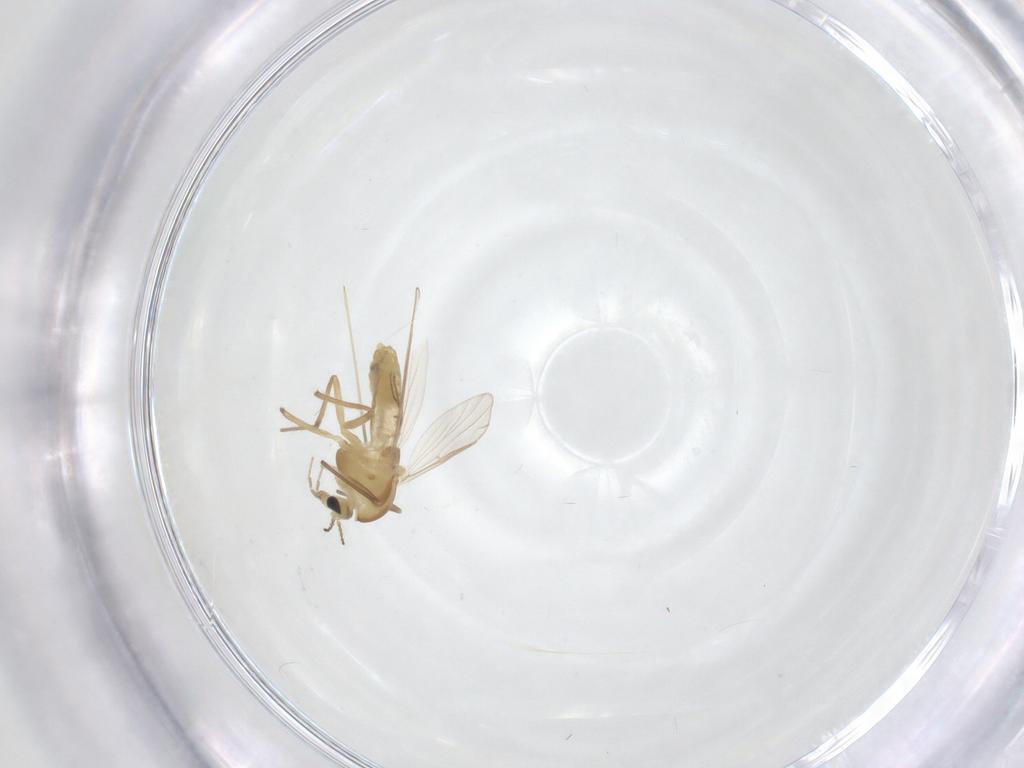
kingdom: Animalia
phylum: Arthropoda
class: Insecta
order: Diptera
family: Chironomidae
